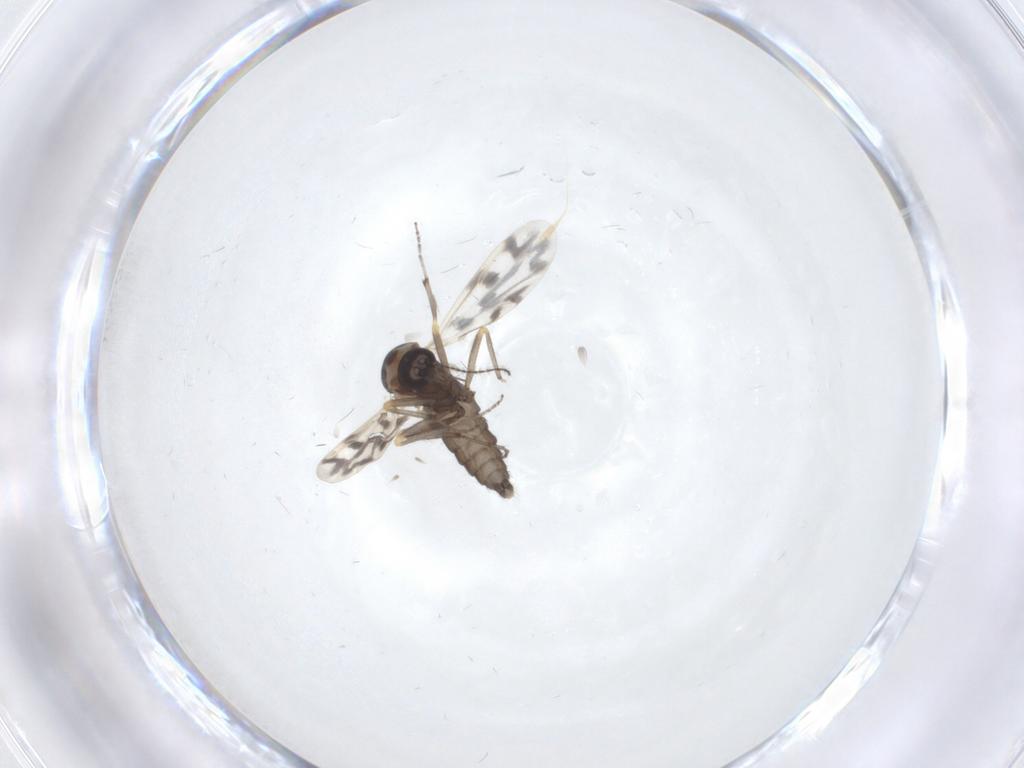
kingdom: Animalia
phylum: Arthropoda
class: Insecta
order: Diptera
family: Ceratopogonidae
